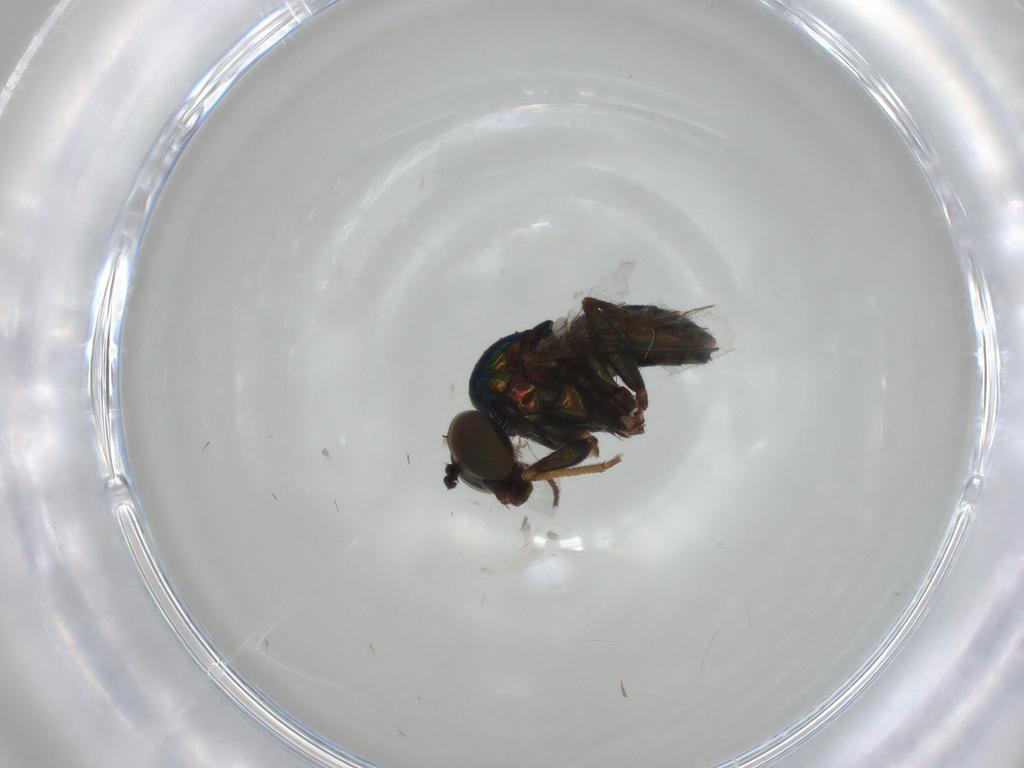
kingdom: Animalia
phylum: Arthropoda
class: Insecta
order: Diptera
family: Dolichopodidae
